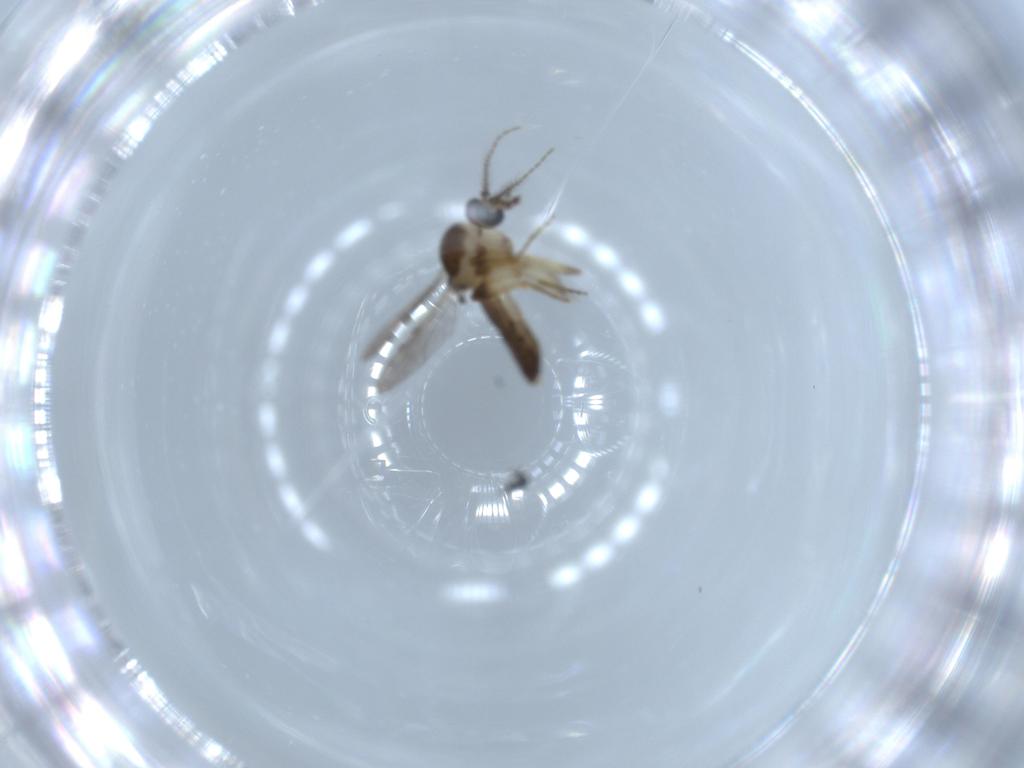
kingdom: Animalia
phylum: Arthropoda
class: Insecta
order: Diptera
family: Ceratopogonidae
